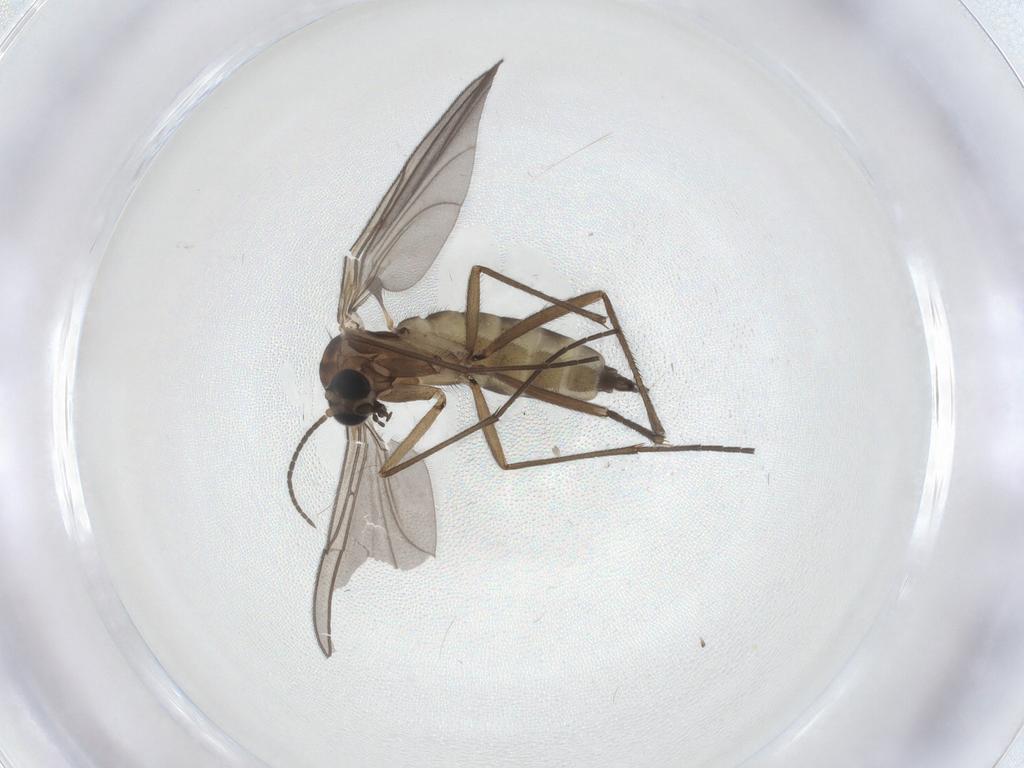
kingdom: Animalia
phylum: Arthropoda
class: Insecta
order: Diptera
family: Sciaridae
